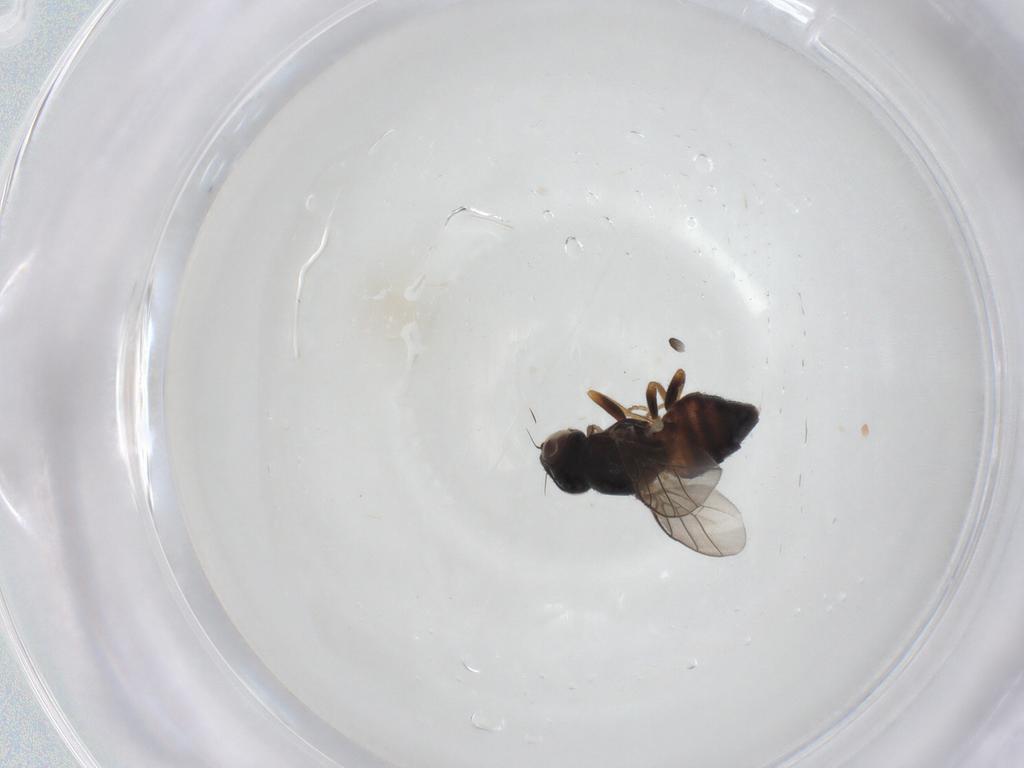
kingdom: Animalia
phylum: Arthropoda
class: Insecta
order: Diptera
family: Chloropidae
